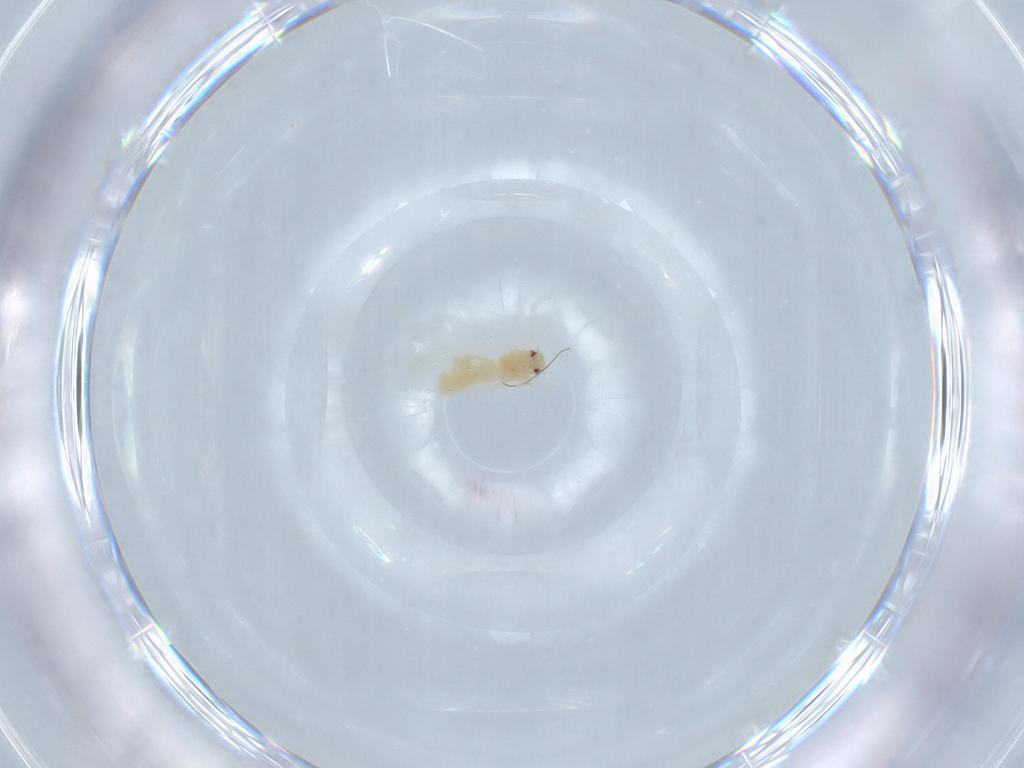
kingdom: Animalia
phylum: Arthropoda
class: Insecta
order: Hemiptera
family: Aleyrodidae
